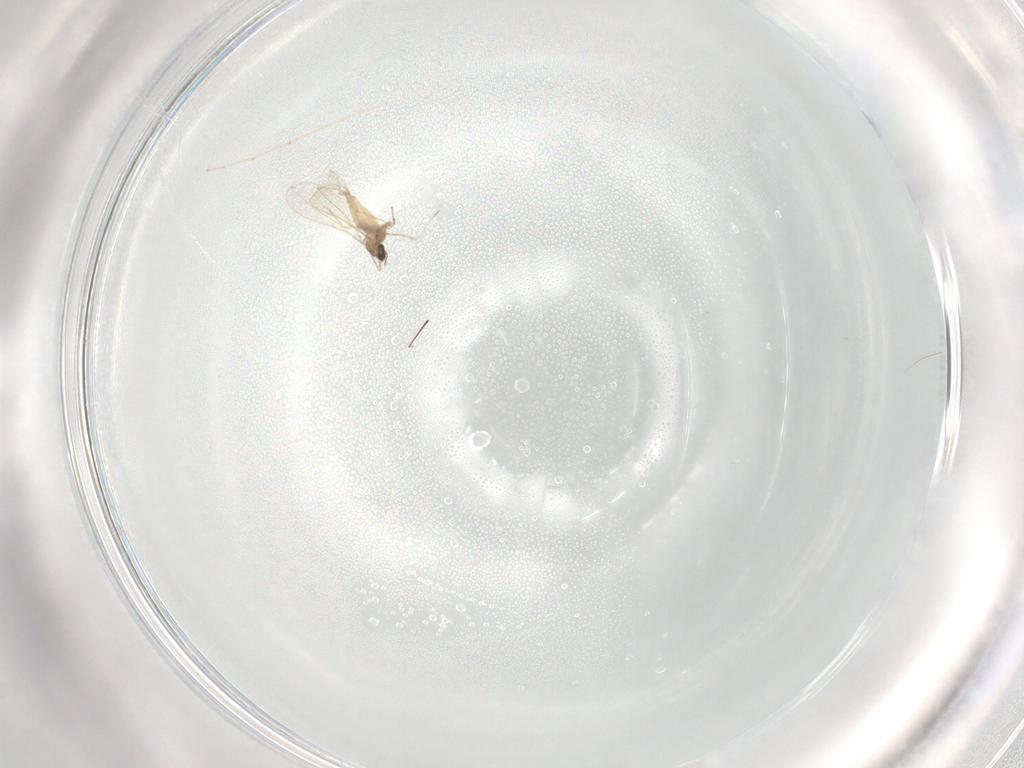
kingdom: Animalia
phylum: Arthropoda
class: Insecta
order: Diptera
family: Cecidomyiidae
